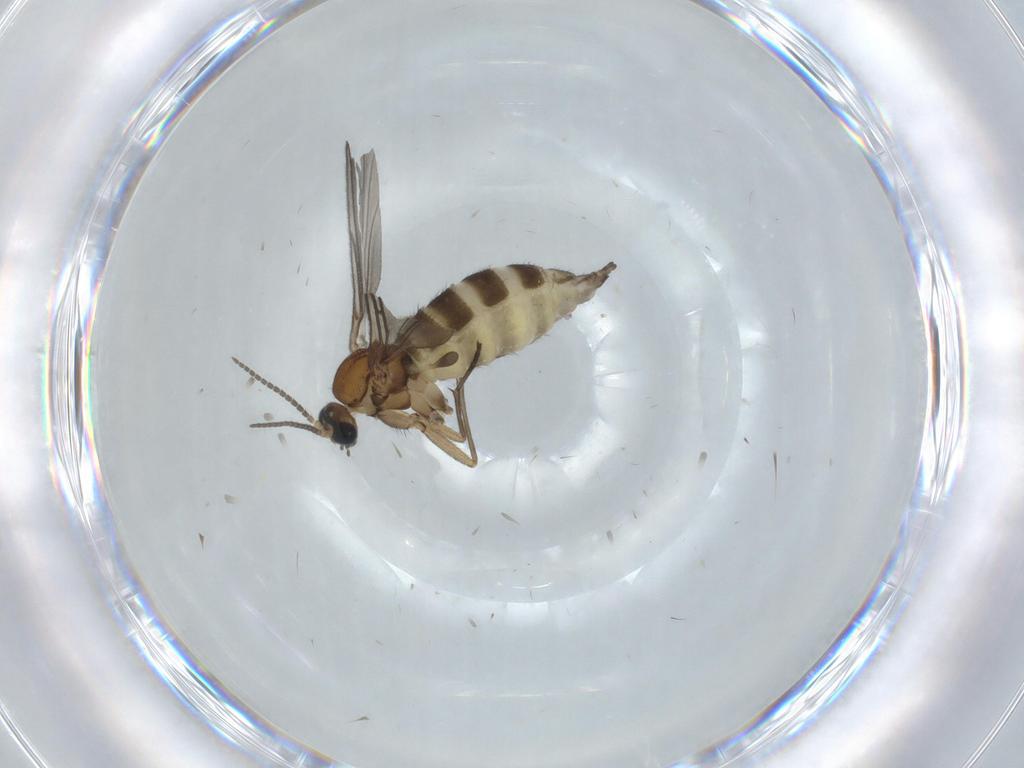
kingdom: Animalia
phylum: Arthropoda
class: Insecta
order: Diptera
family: Sciaridae
